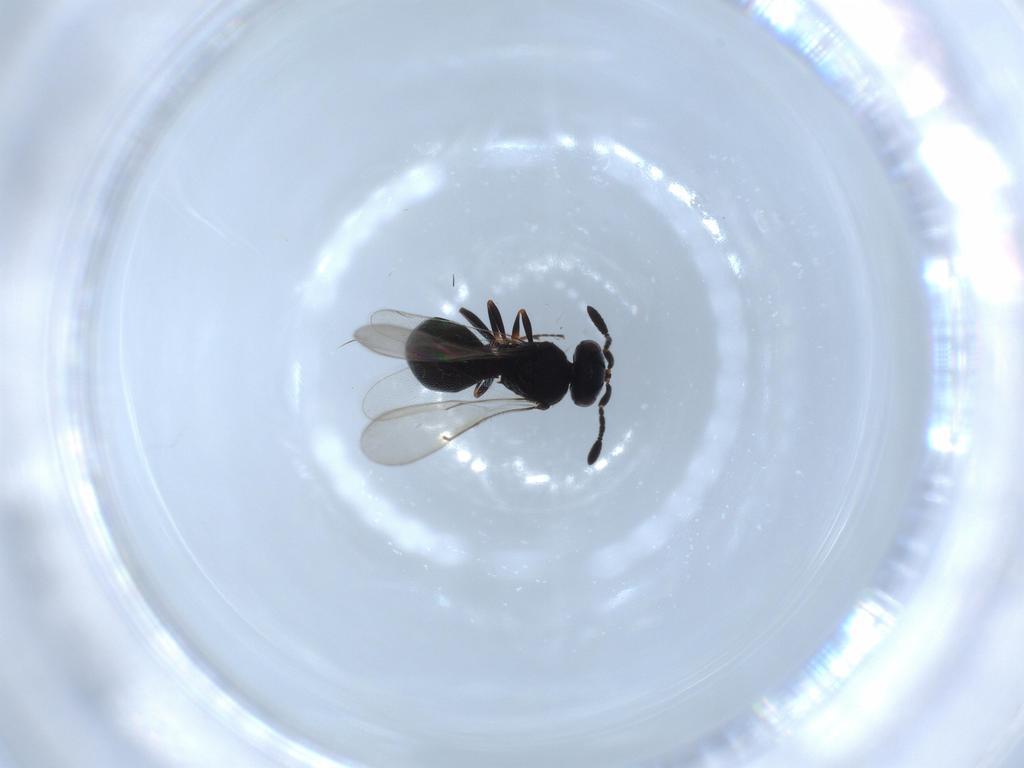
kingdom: Animalia
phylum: Arthropoda
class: Insecta
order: Hymenoptera
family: Scelionidae
